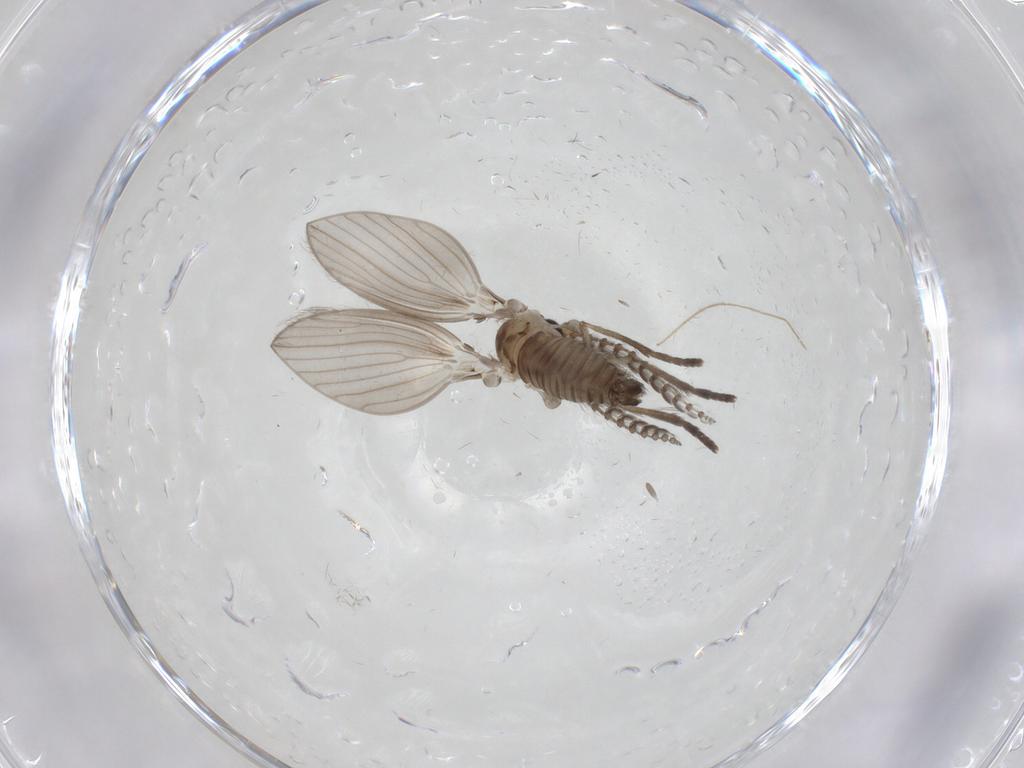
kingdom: Animalia
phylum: Arthropoda
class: Insecta
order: Diptera
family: Psychodidae
